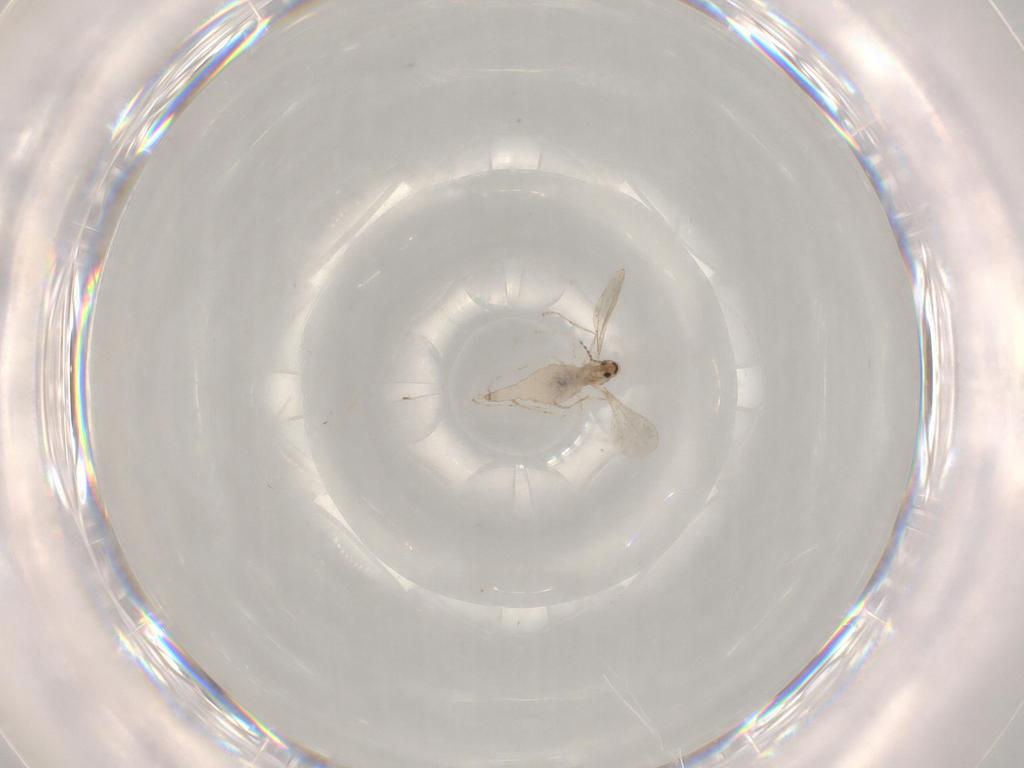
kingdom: Animalia
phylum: Arthropoda
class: Insecta
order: Diptera
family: Cecidomyiidae
